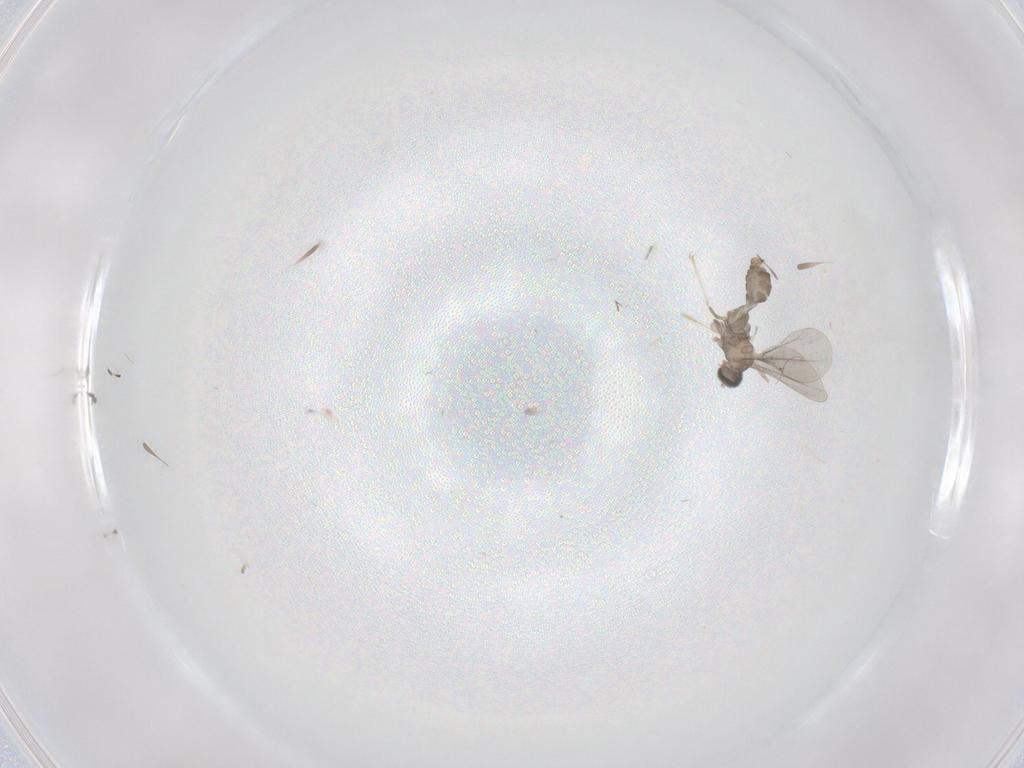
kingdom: Animalia
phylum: Arthropoda
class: Insecta
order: Diptera
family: Cecidomyiidae
